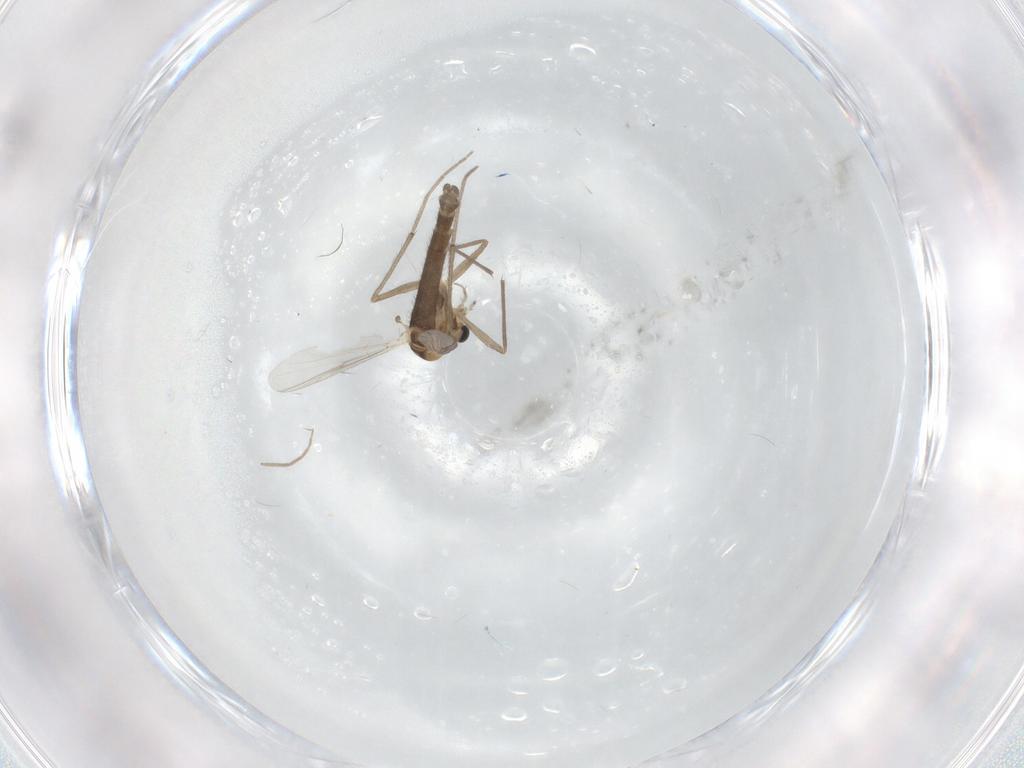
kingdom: Animalia
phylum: Arthropoda
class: Insecta
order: Diptera
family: Chironomidae
